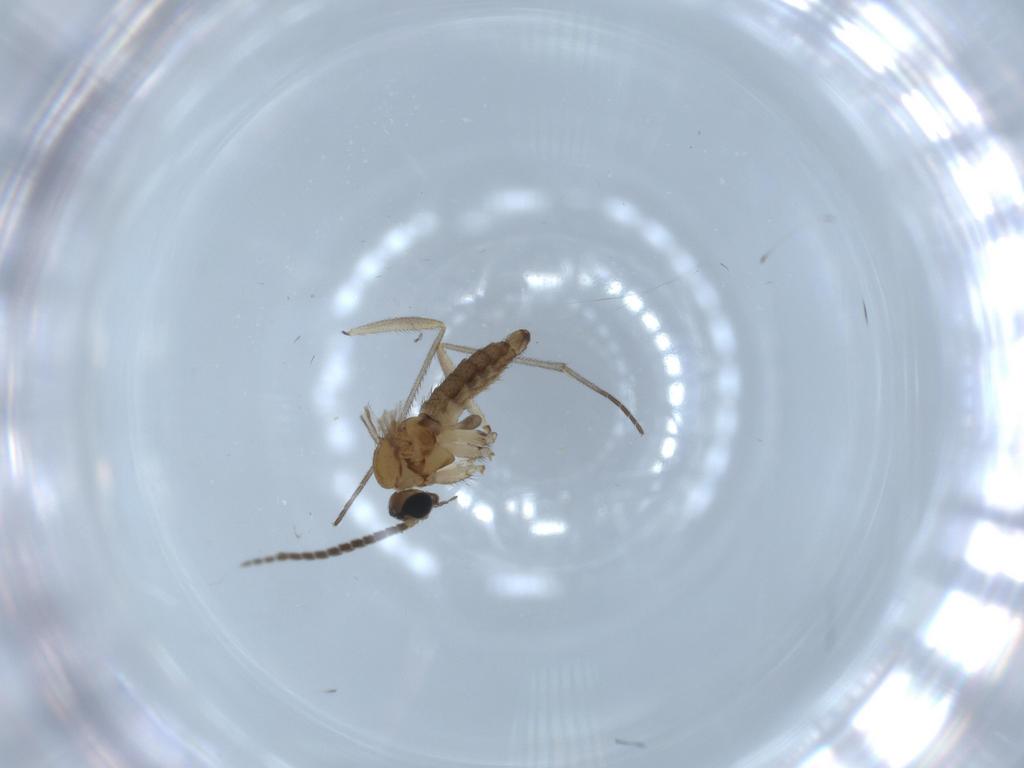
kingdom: Animalia
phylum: Arthropoda
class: Insecta
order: Diptera
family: Sciaridae
